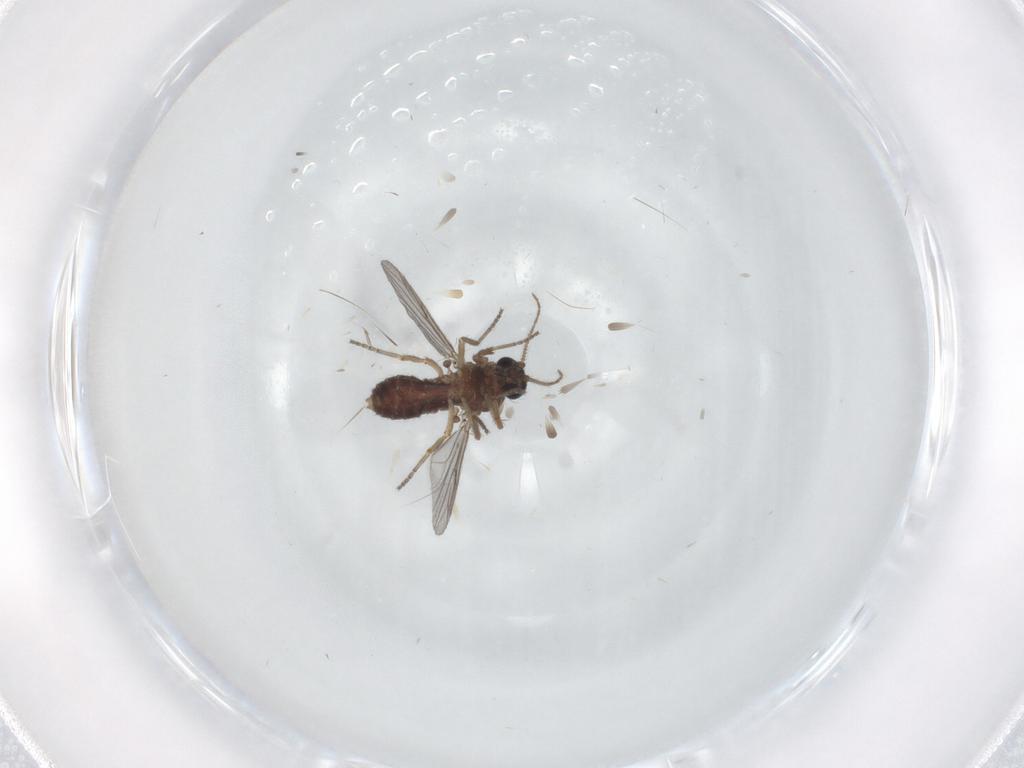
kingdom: Animalia
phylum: Arthropoda
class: Insecta
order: Diptera
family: Phoridae
